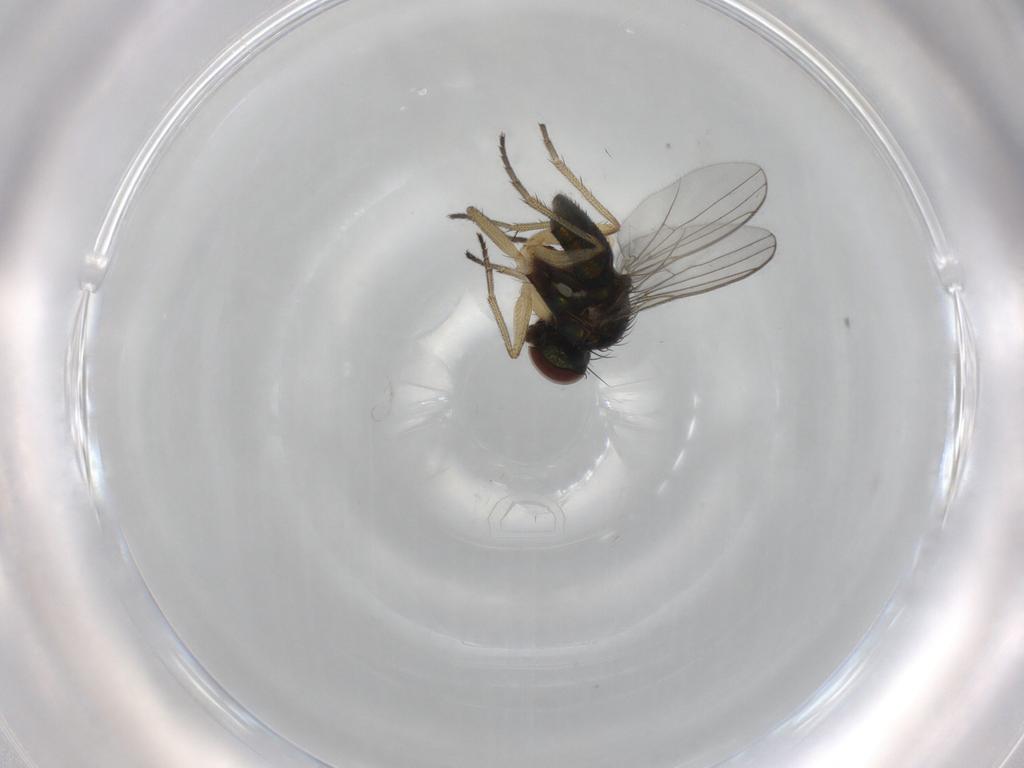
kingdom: Animalia
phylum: Arthropoda
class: Insecta
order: Diptera
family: Ceratopogonidae
